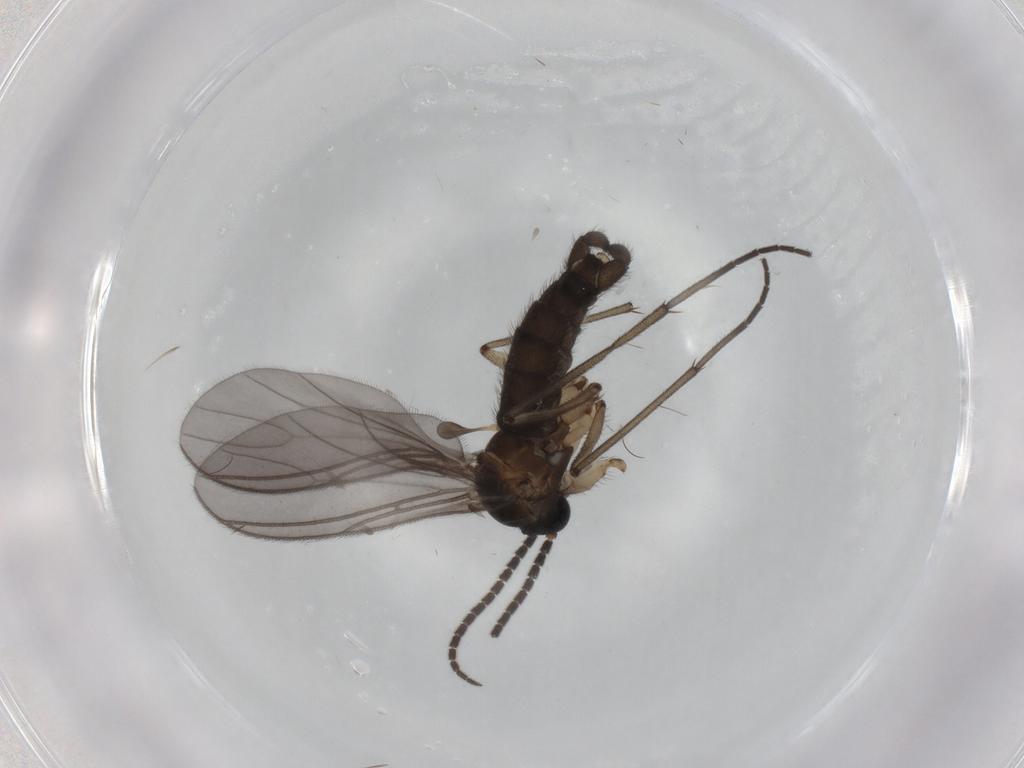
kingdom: Animalia
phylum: Arthropoda
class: Insecta
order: Diptera
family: Sciaridae
